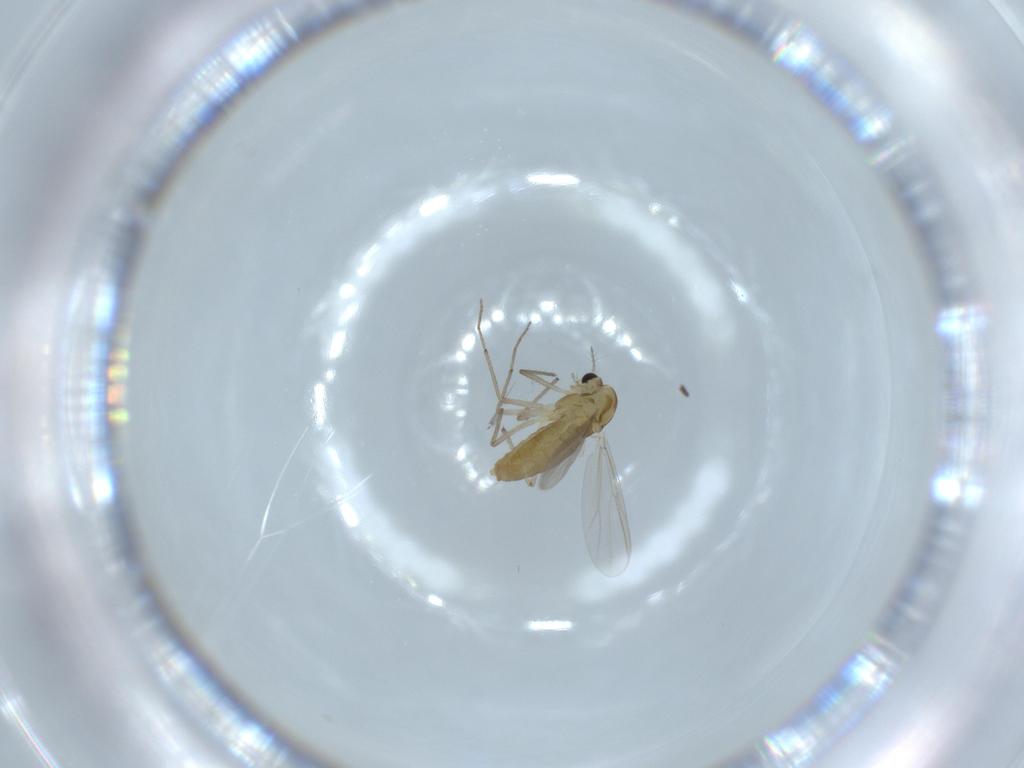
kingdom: Animalia
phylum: Arthropoda
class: Insecta
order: Diptera
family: Chironomidae
